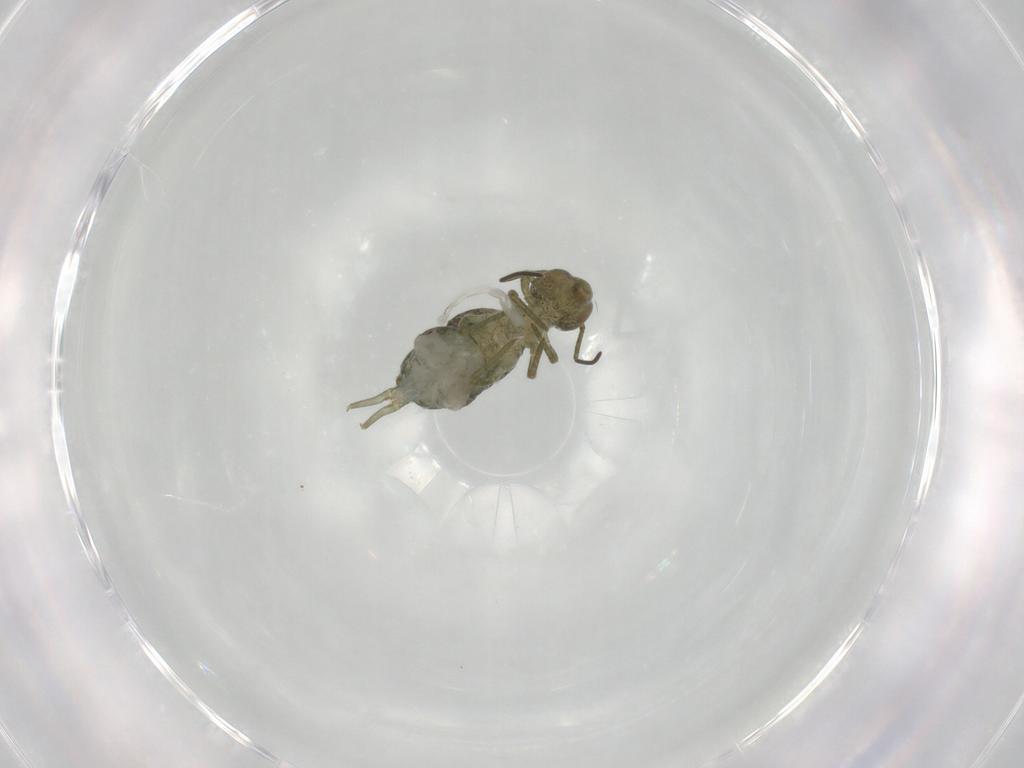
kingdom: Animalia
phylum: Arthropoda
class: Collembola
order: Symphypleona
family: Sminthuridae
